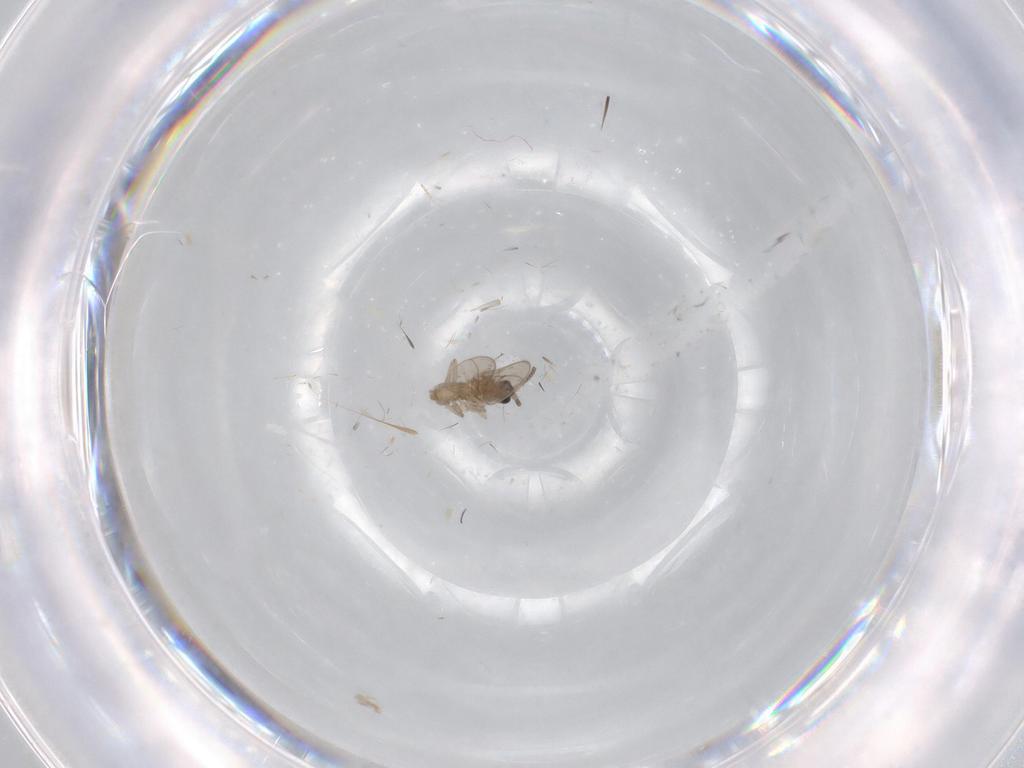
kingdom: Animalia
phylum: Arthropoda
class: Insecta
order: Diptera
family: Cecidomyiidae
